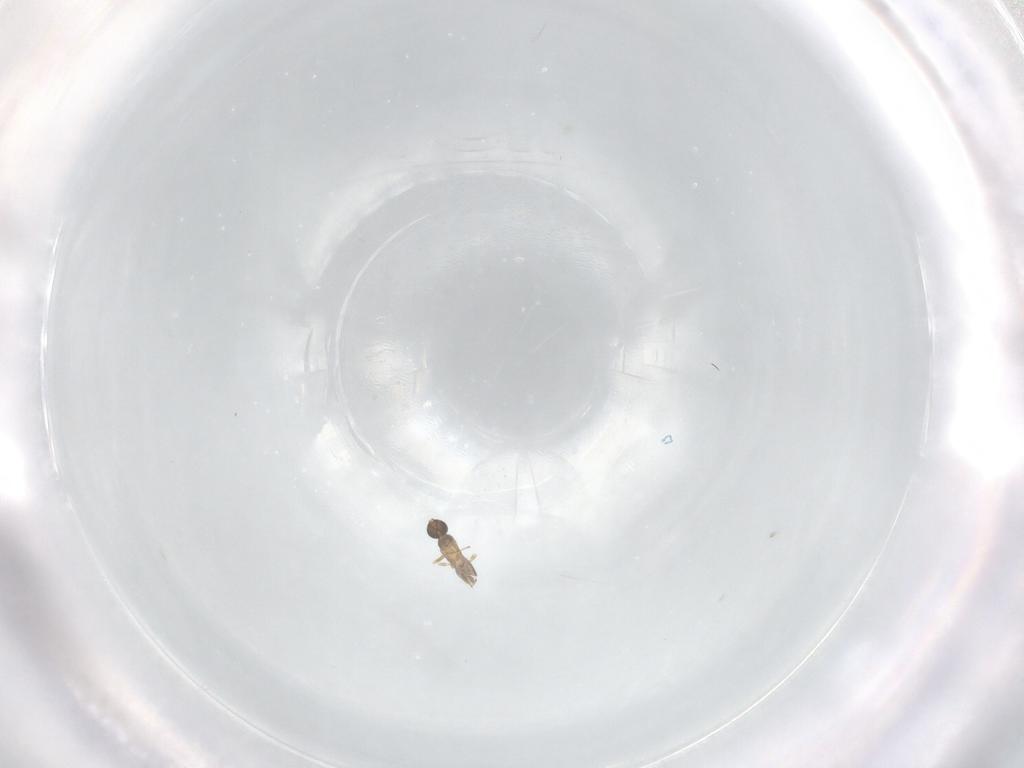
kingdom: Animalia
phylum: Arthropoda
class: Insecta
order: Hymenoptera
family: Mymaridae
